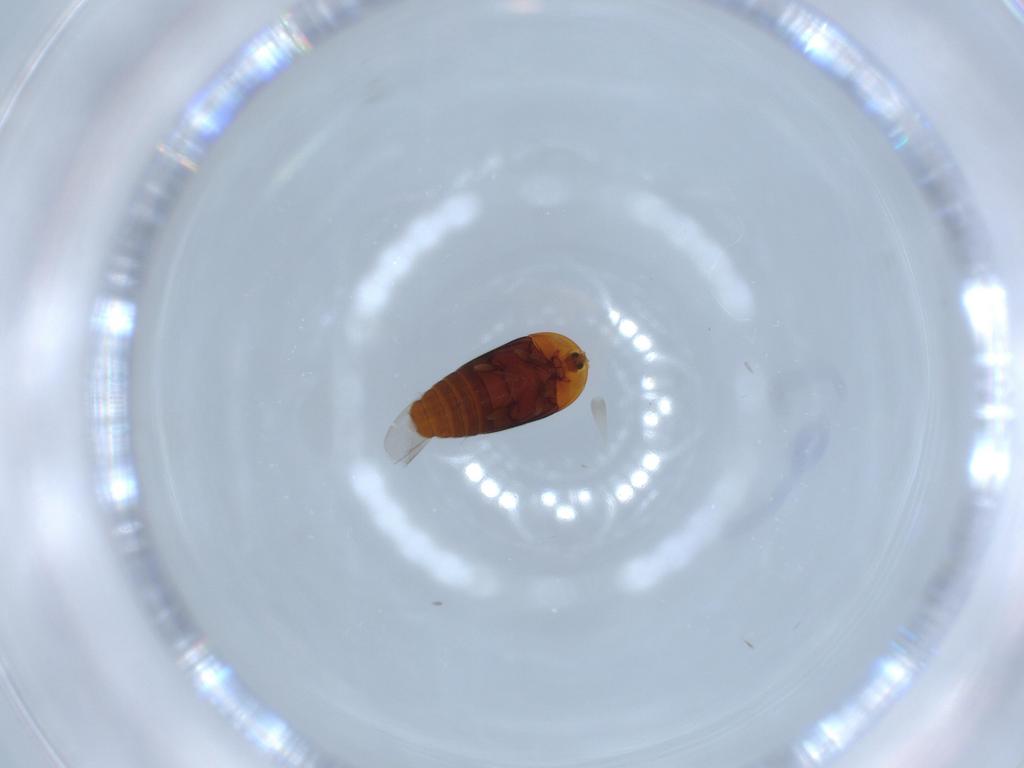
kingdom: Animalia
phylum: Arthropoda
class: Insecta
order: Coleoptera
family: Corylophidae
